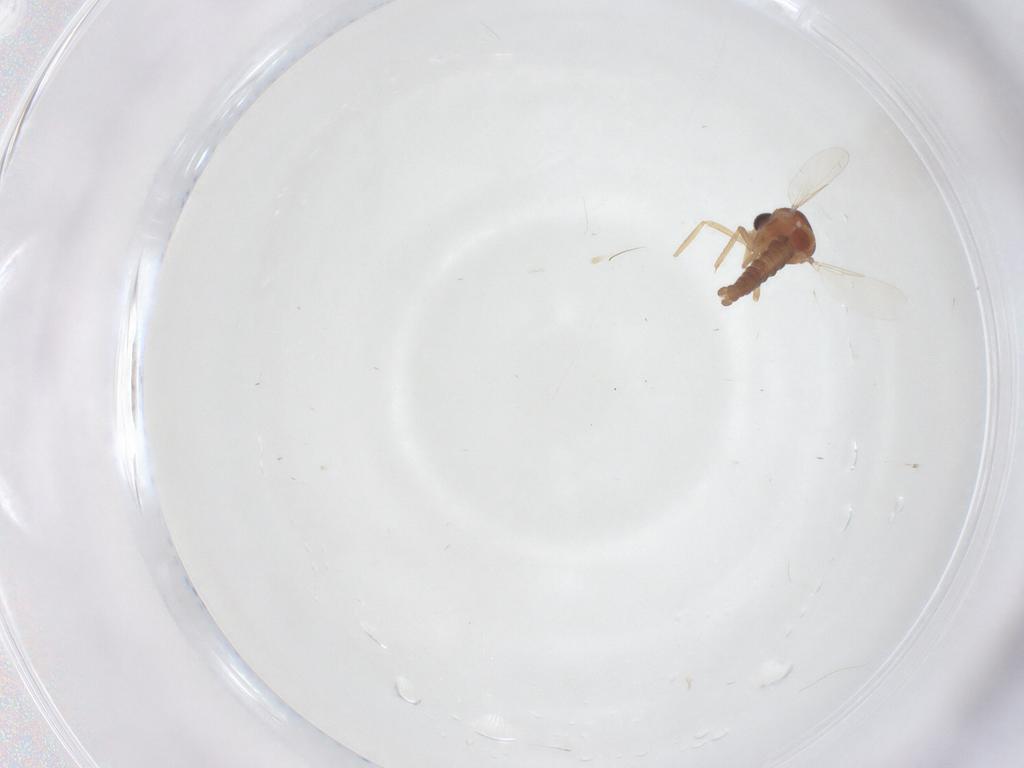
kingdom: Animalia
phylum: Arthropoda
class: Insecta
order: Diptera
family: Ceratopogonidae
